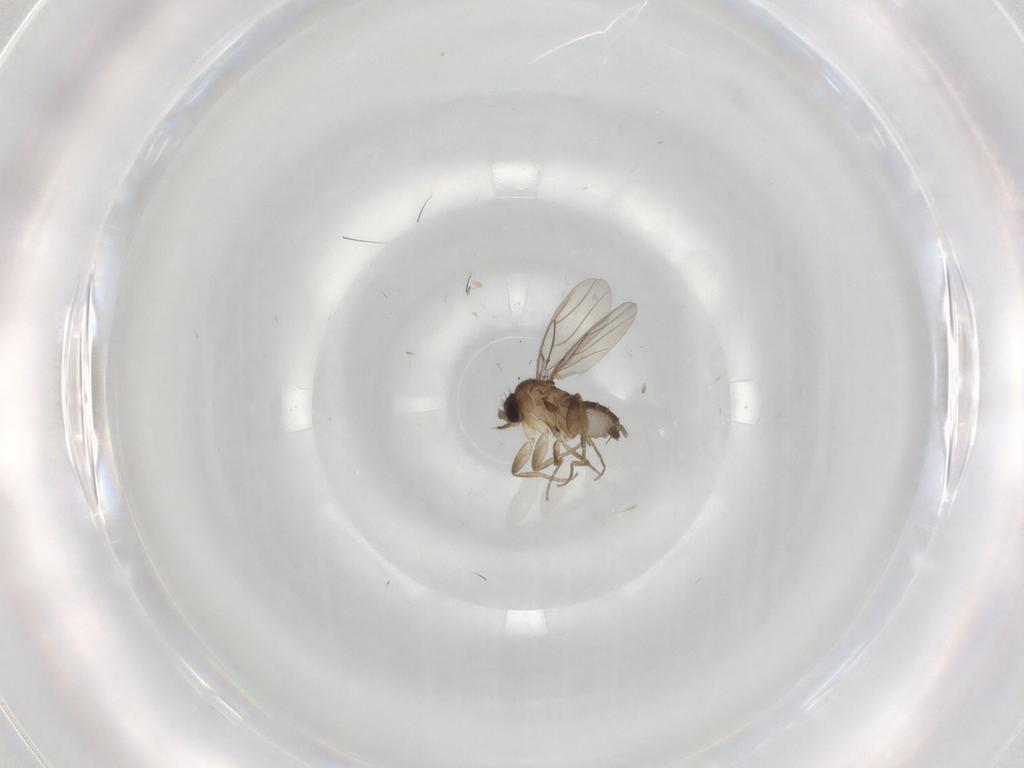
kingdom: Animalia
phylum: Arthropoda
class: Insecta
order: Diptera
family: Sciaridae
